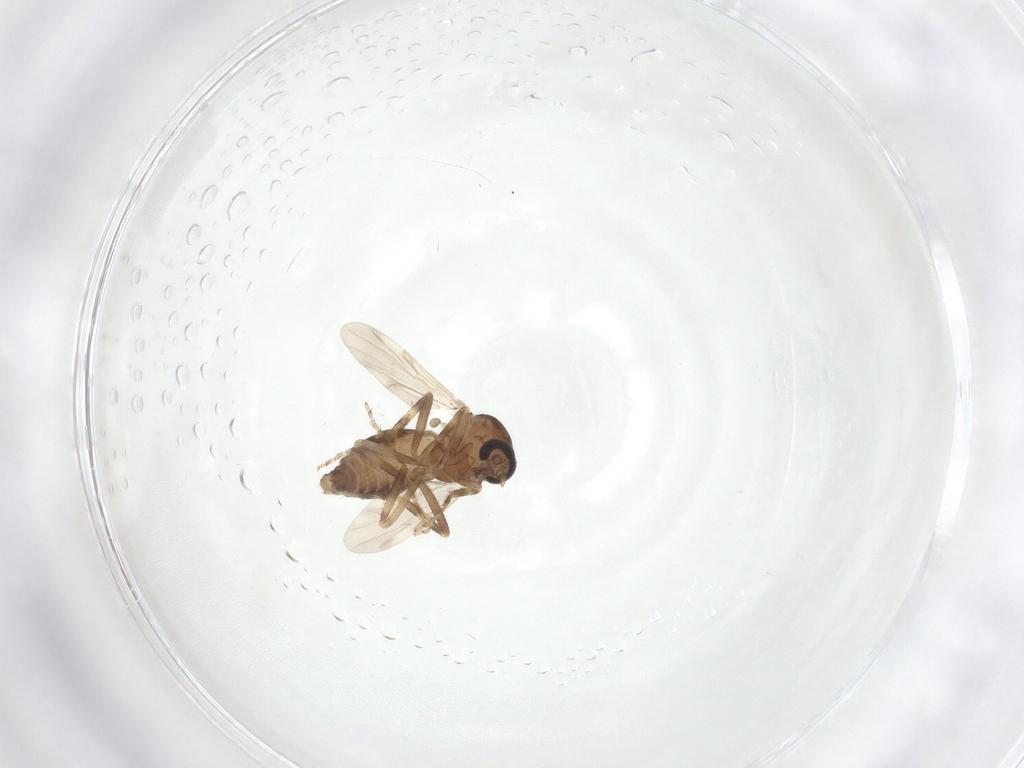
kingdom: Animalia
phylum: Arthropoda
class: Insecta
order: Diptera
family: Ceratopogonidae
